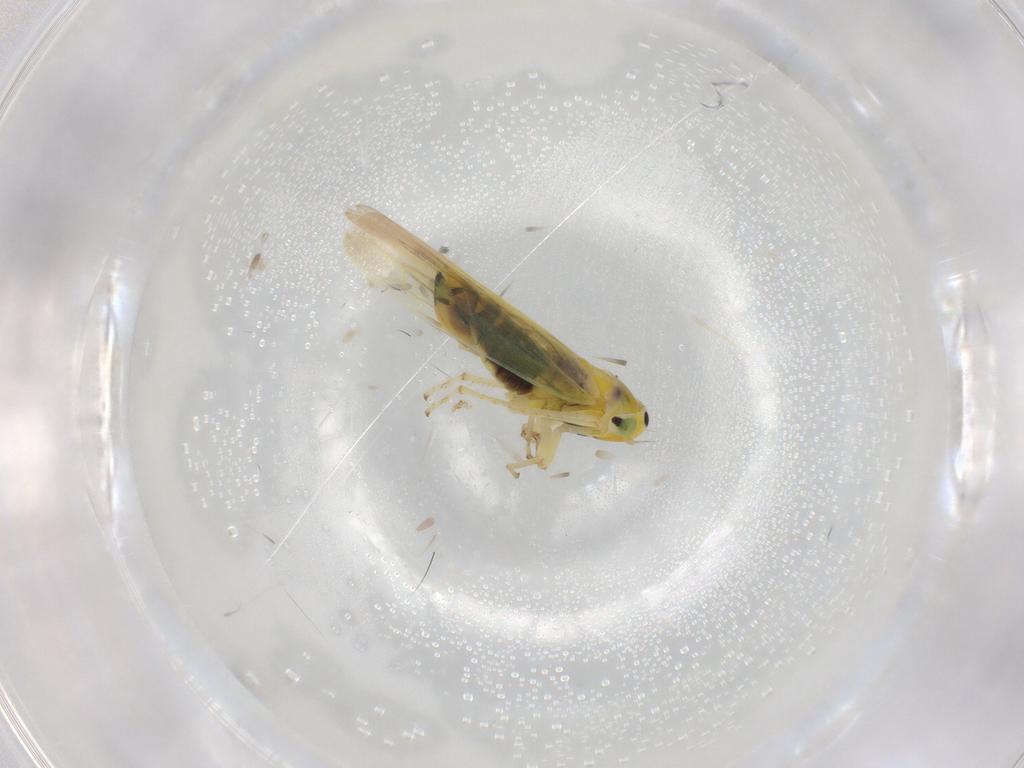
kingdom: Animalia
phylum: Arthropoda
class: Insecta
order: Hemiptera
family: Cicadellidae
